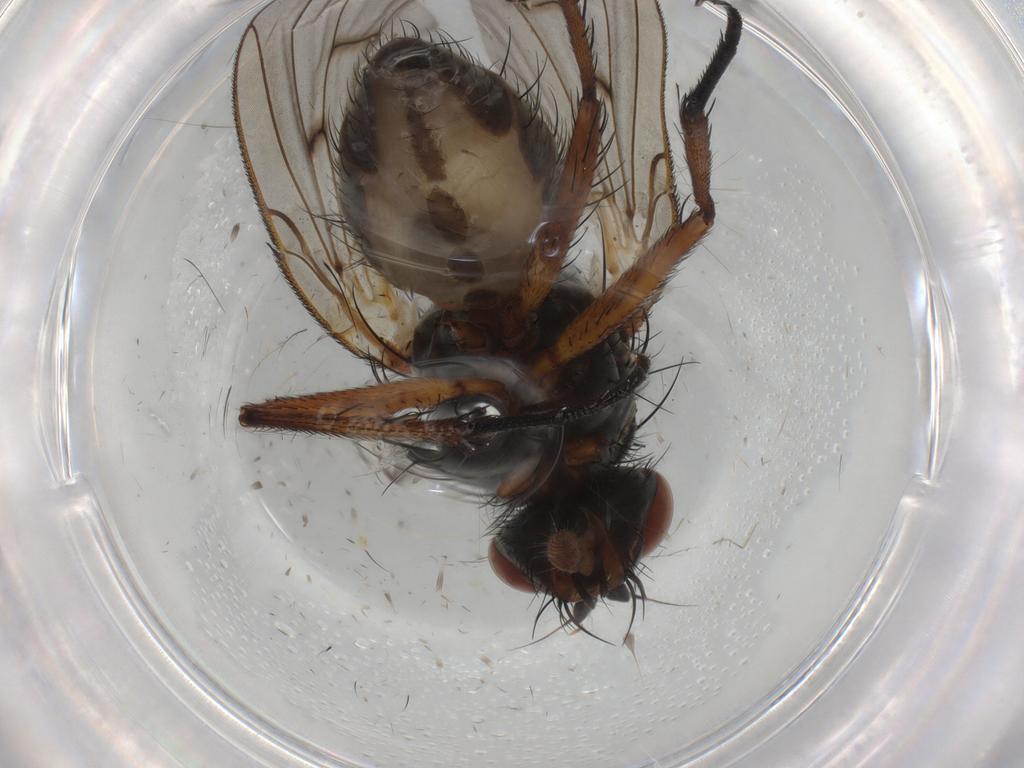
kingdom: Animalia
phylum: Arthropoda
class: Insecta
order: Diptera
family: Anthomyiidae
